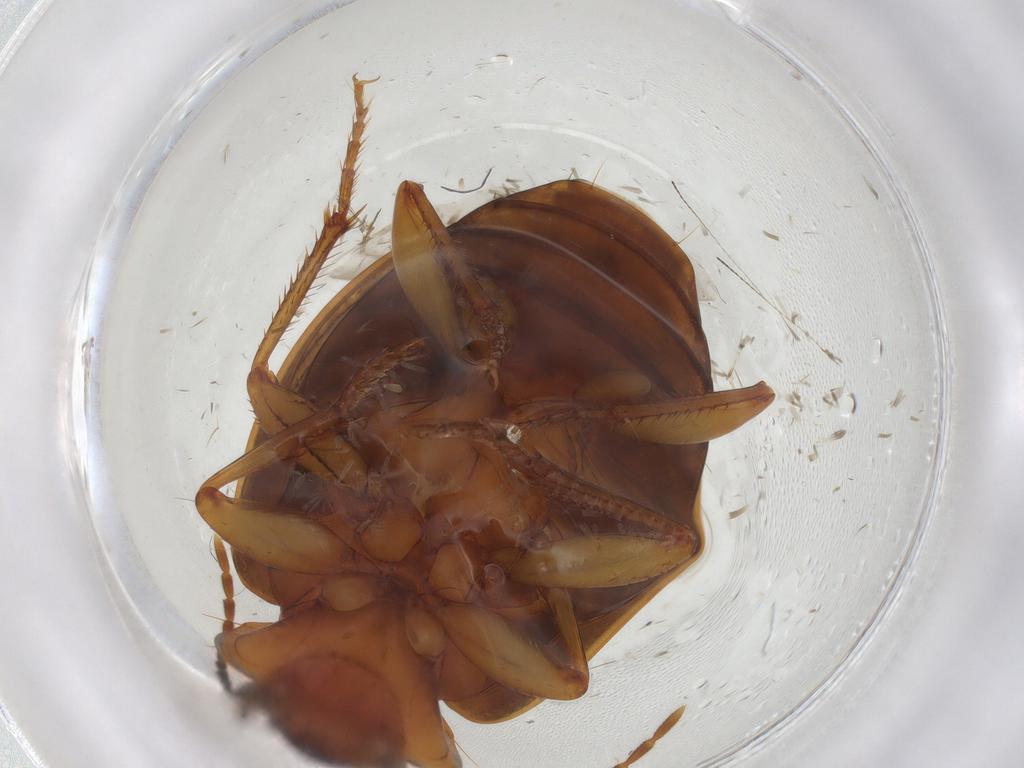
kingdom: Animalia
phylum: Arthropoda
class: Insecta
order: Coleoptera
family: Carabidae
